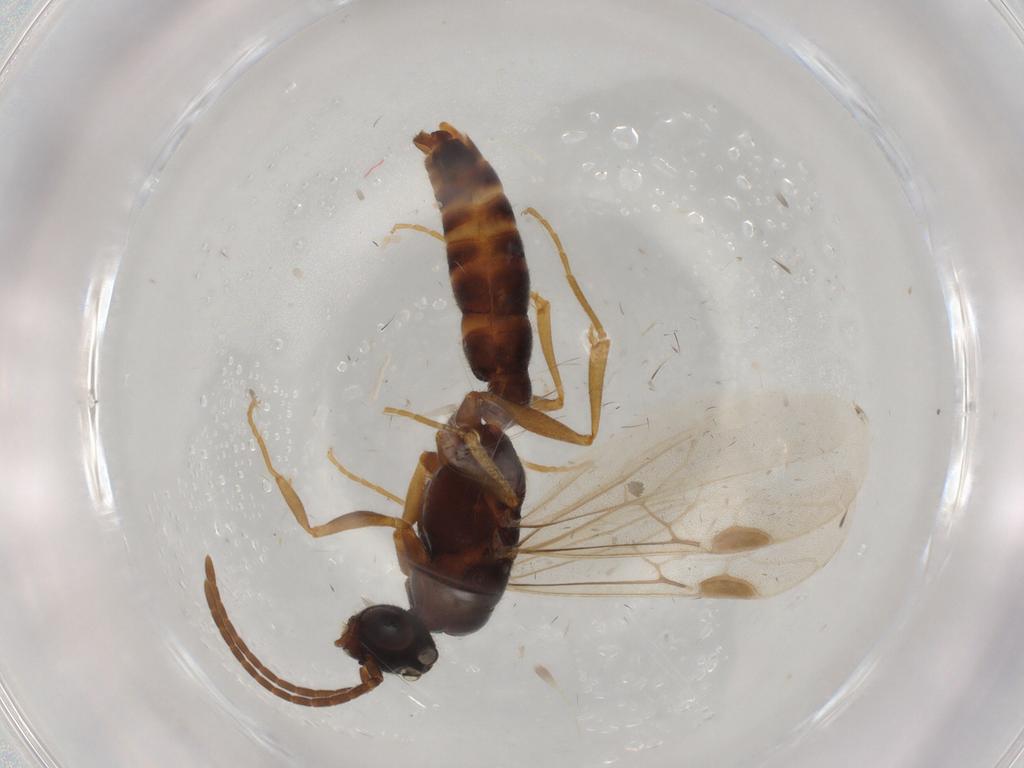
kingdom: Animalia
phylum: Arthropoda
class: Insecta
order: Hymenoptera
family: Formicidae
